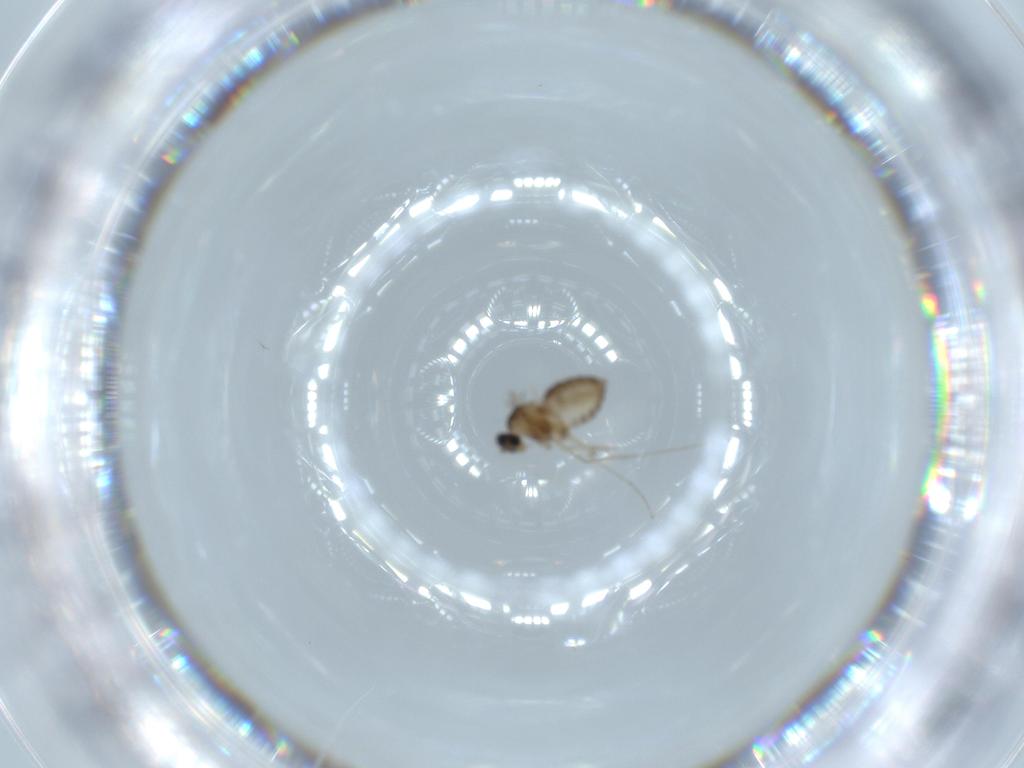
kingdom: Animalia
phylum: Arthropoda
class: Insecta
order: Diptera
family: Cecidomyiidae
